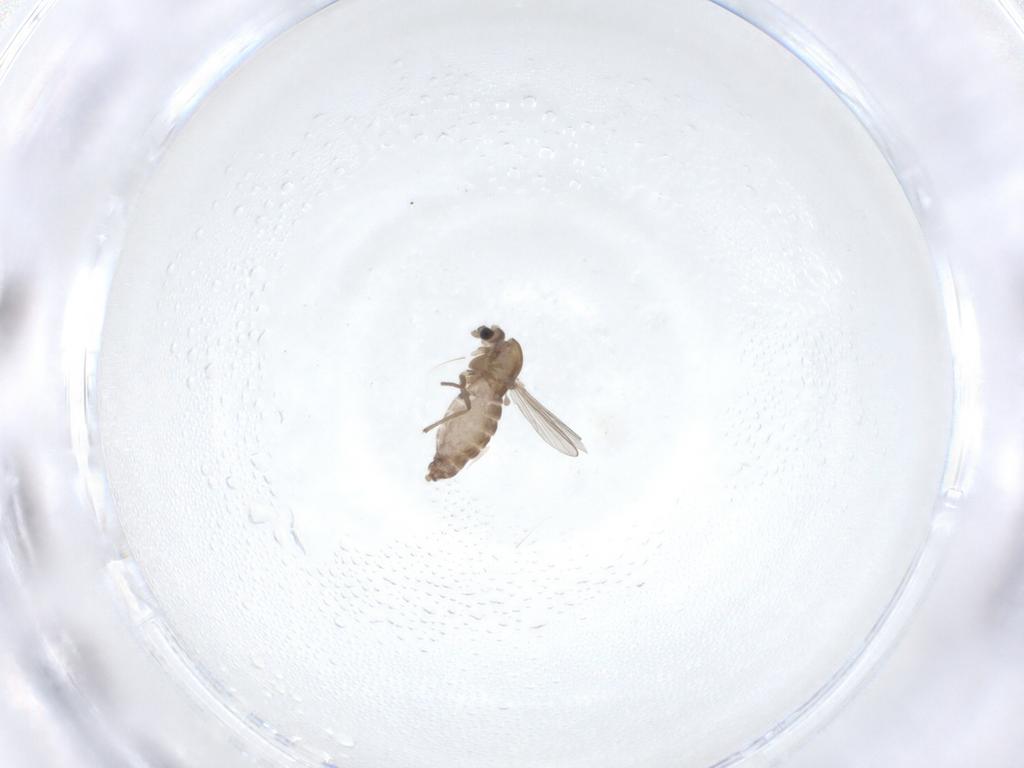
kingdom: Animalia
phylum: Arthropoda
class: Insecta
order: Diptera
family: Chironomidae
